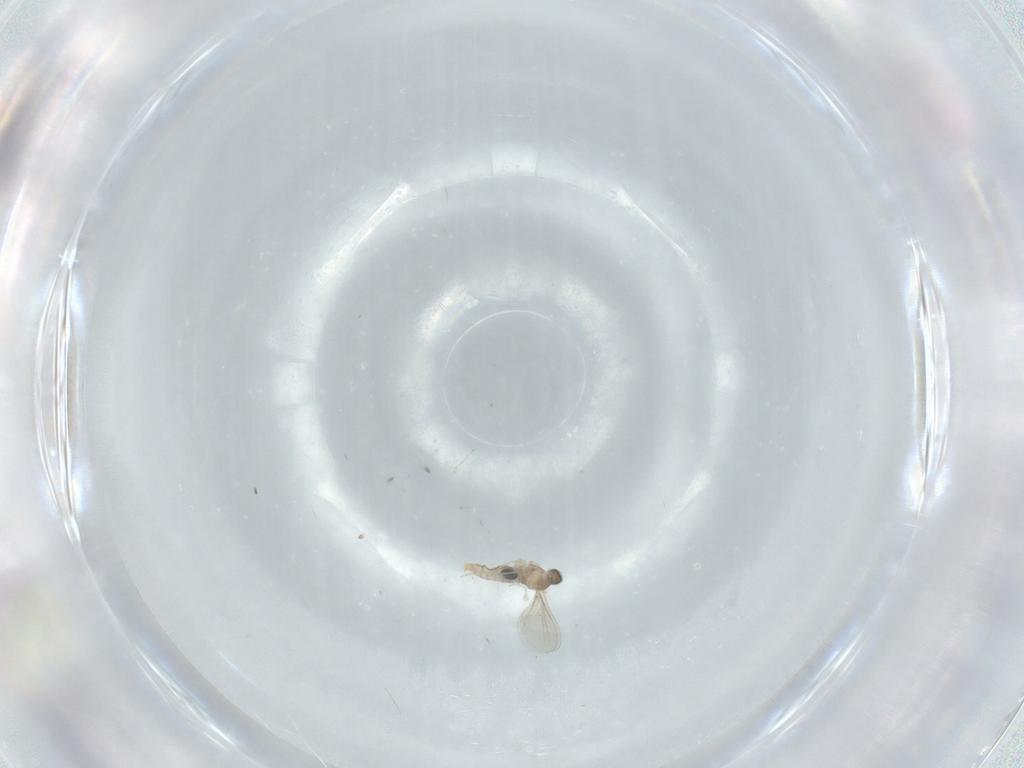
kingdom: Animalia
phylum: Arthropoda
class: Insecta
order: Diptera
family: Cecidomyiidae
